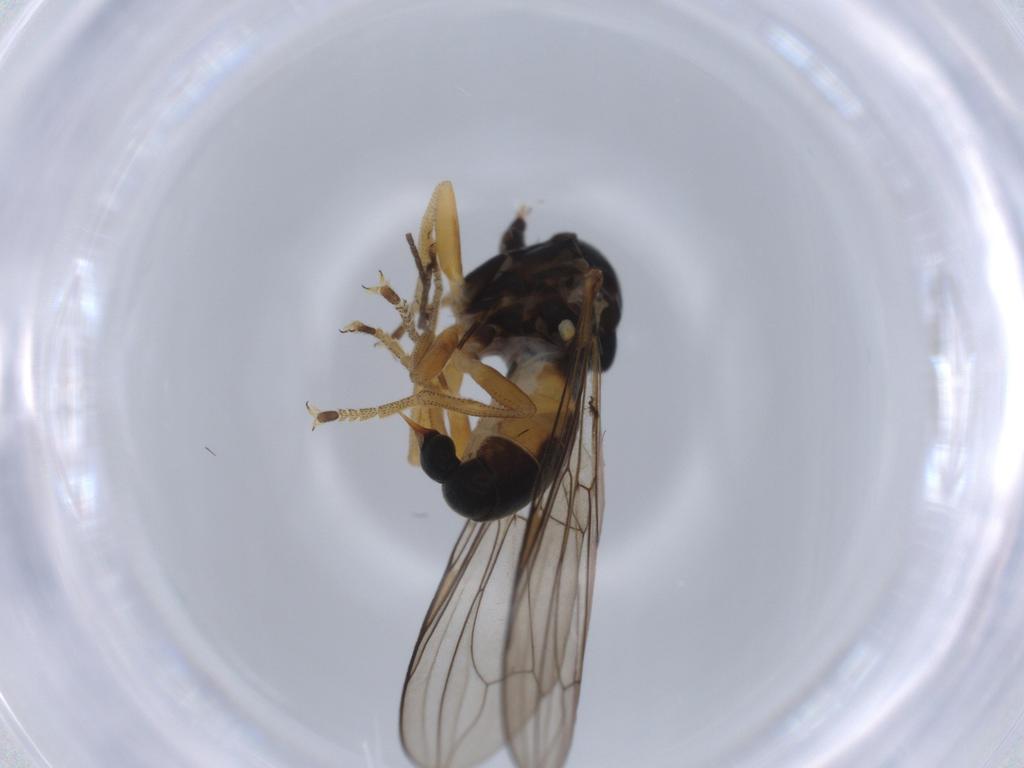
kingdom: Animalia
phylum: Arthropoda
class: Insecta
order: Diptera
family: Pipunculidae
